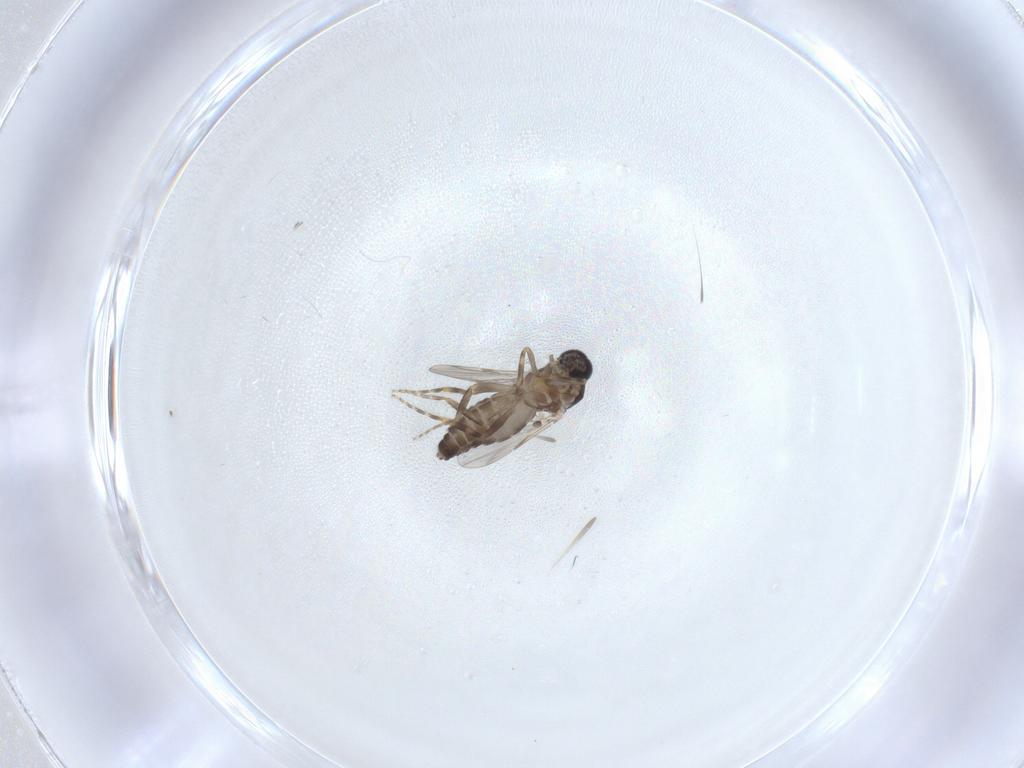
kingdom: Animalia
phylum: Arthropoda
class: Insecta
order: Diptera
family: Ceratopogonidae
